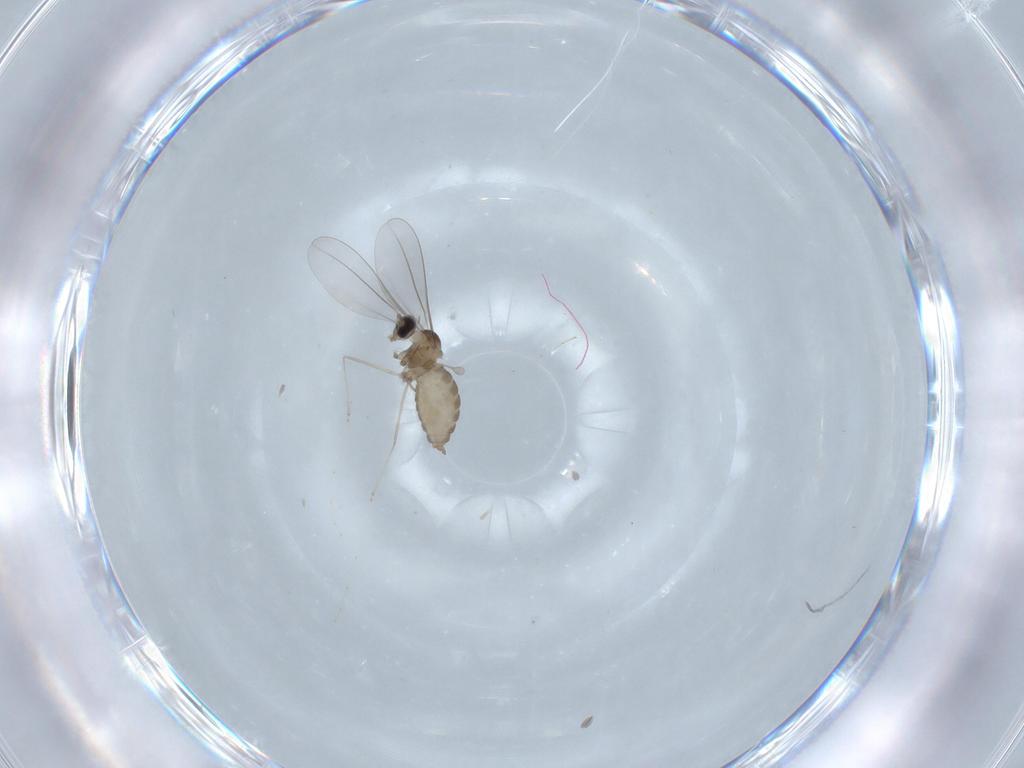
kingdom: Animalia
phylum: Arthropoda
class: Insecta
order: Diptera
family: Cecidomyiidae
